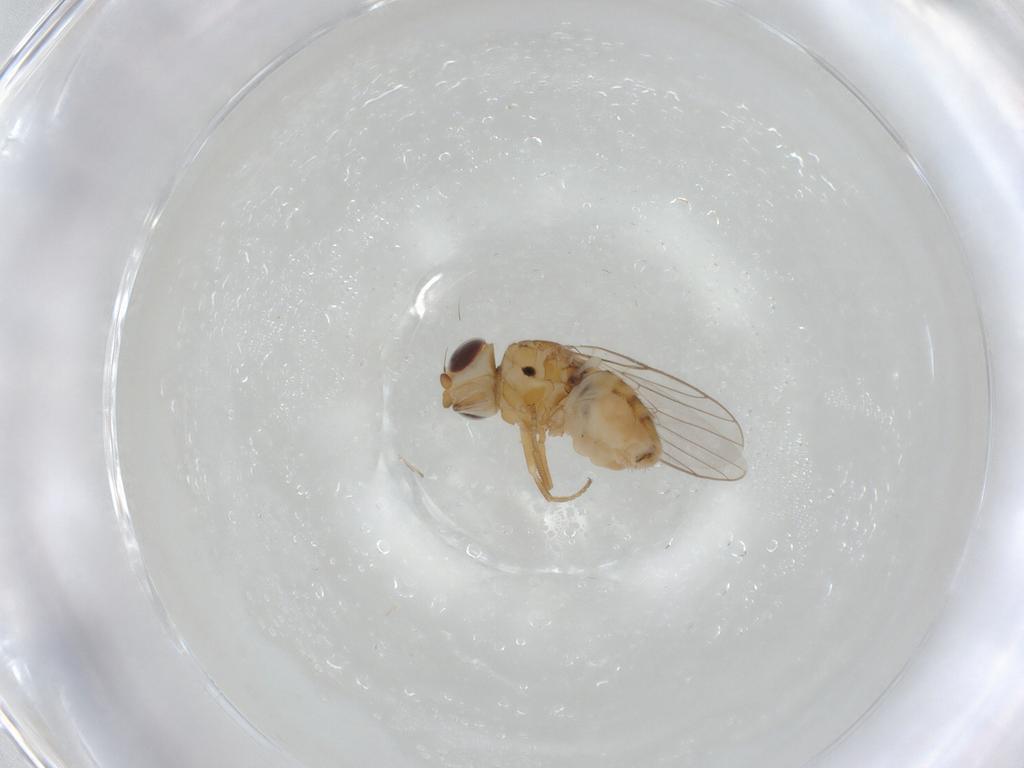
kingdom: Animalia
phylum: Arthropoda
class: Insecta
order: Diptera
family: Chloropidae
